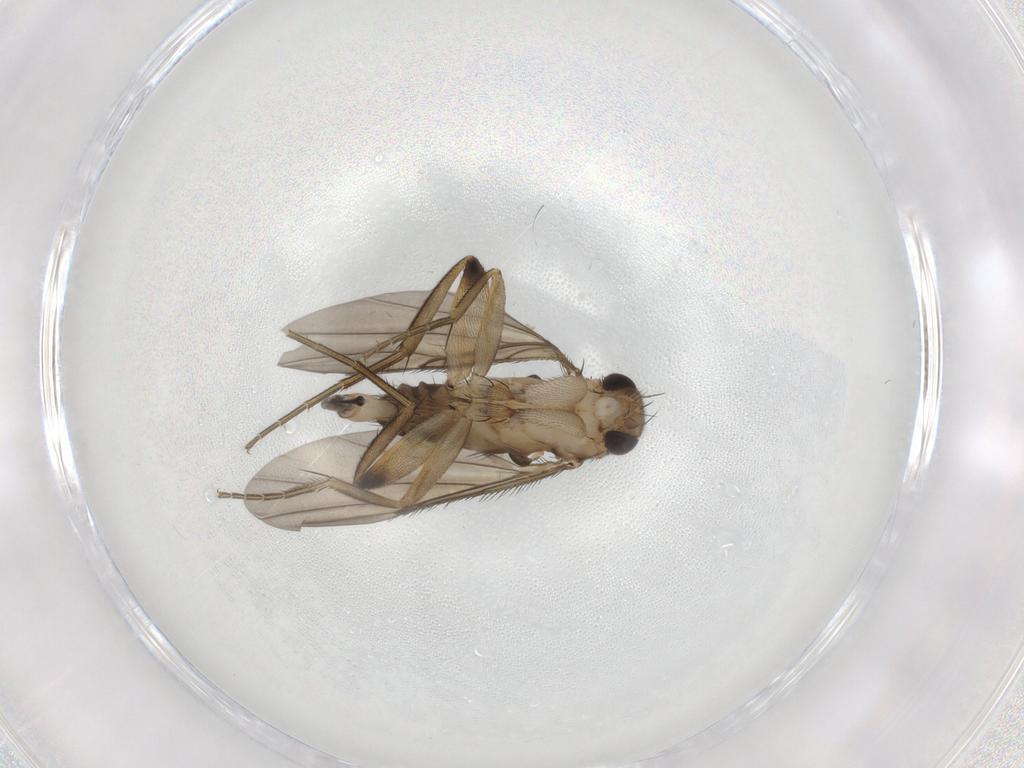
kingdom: Animalia
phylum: Arthropoda
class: Insecta
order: Diptera
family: Phoridae
